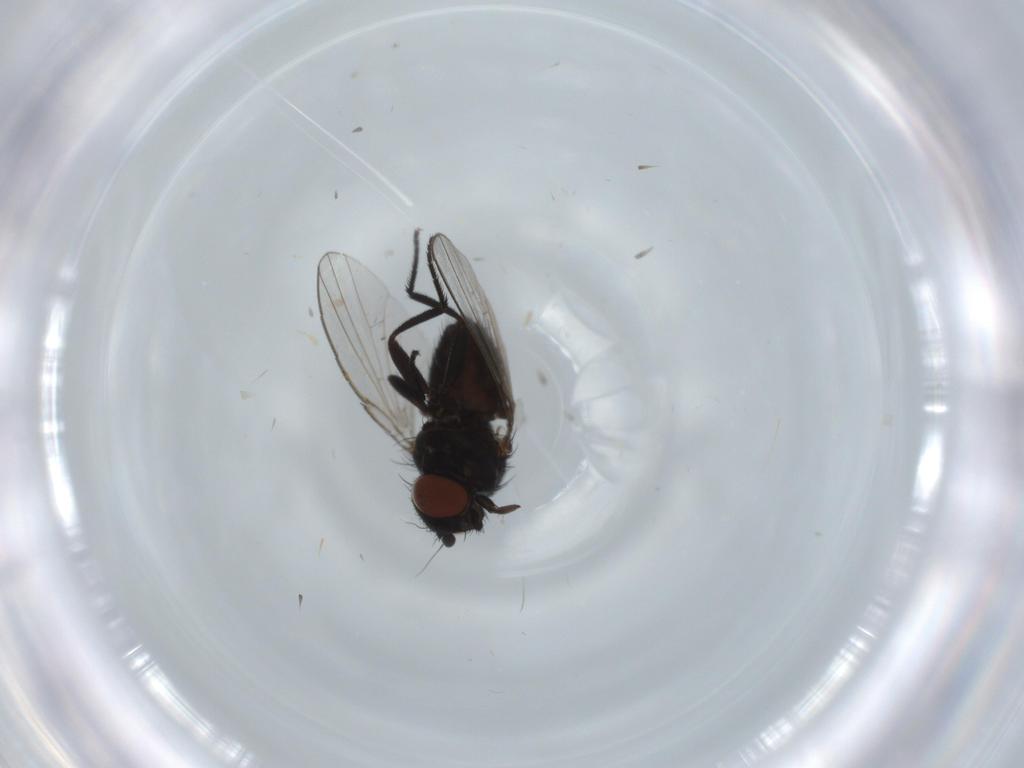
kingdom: Animalia
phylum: Arthropoda
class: Insecta
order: Diptera
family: Milichiidae
